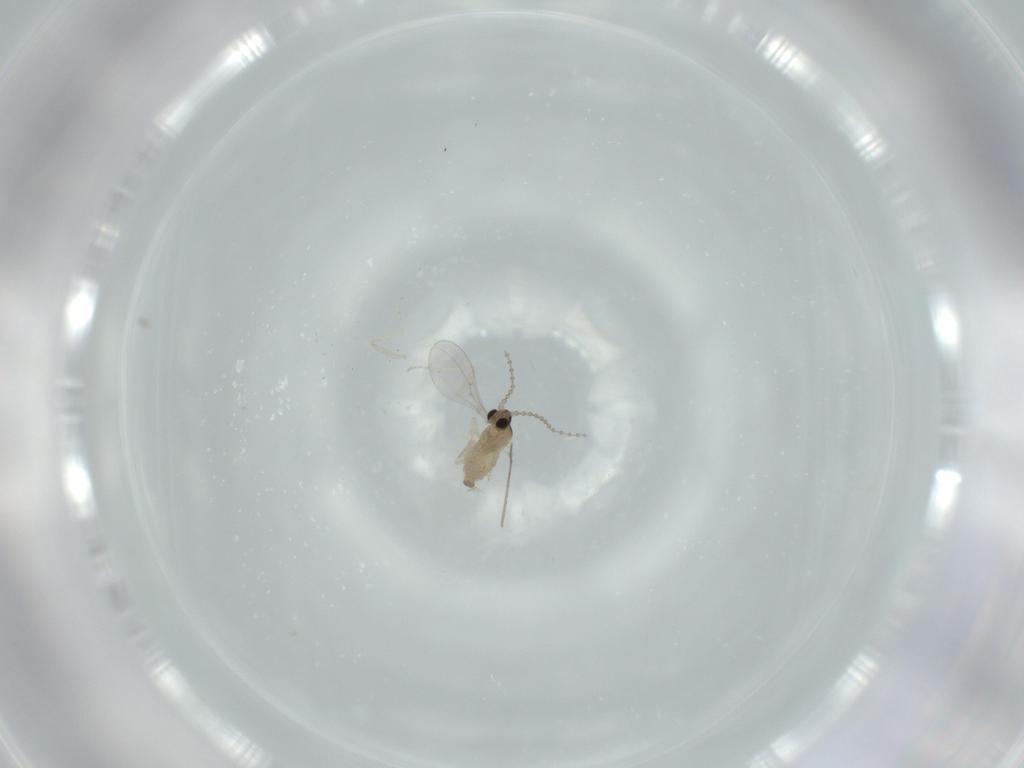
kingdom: Animalia
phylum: Arthropoda
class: Insecta
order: Diptera
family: Cecidomyiidae
